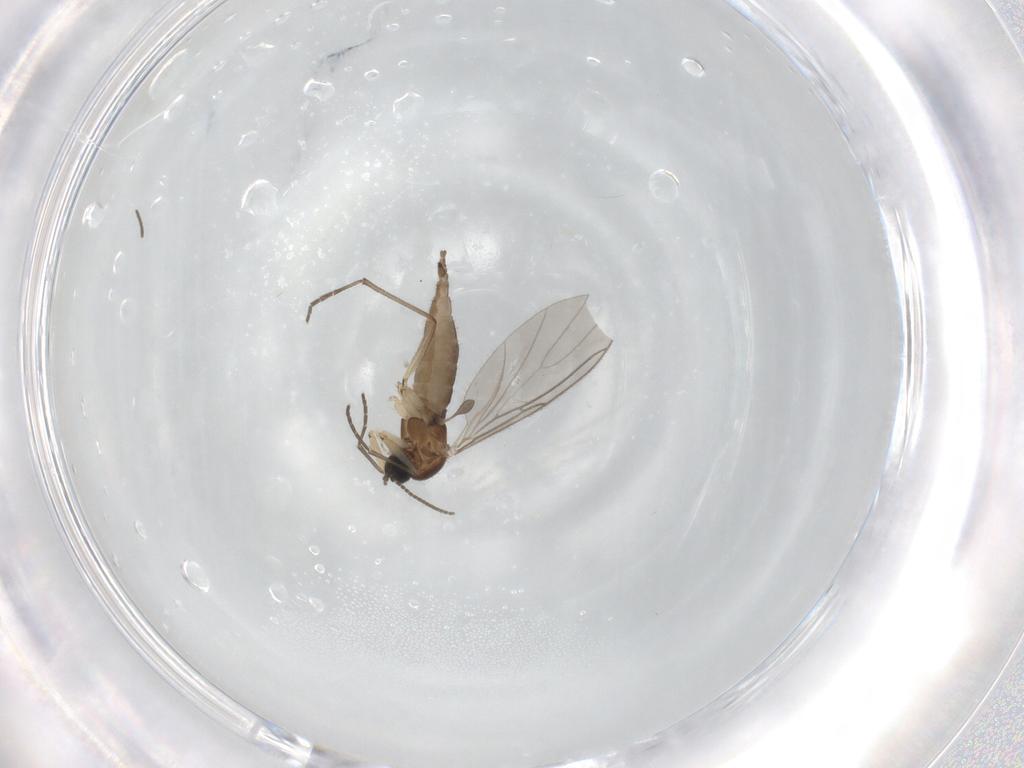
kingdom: Animalia
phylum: Arthropoda
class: Insecta
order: Diptera
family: Sciaridae
